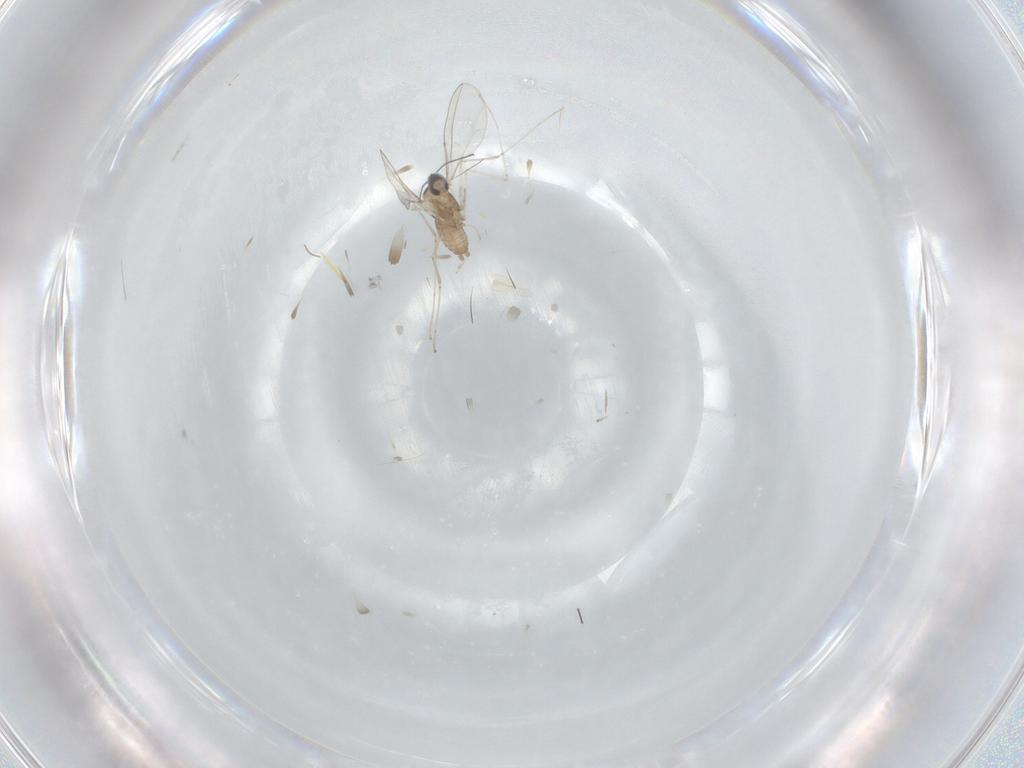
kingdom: Animalia
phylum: Arthropoda
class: Insecta
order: Diptera
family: Cecidomyiidae
